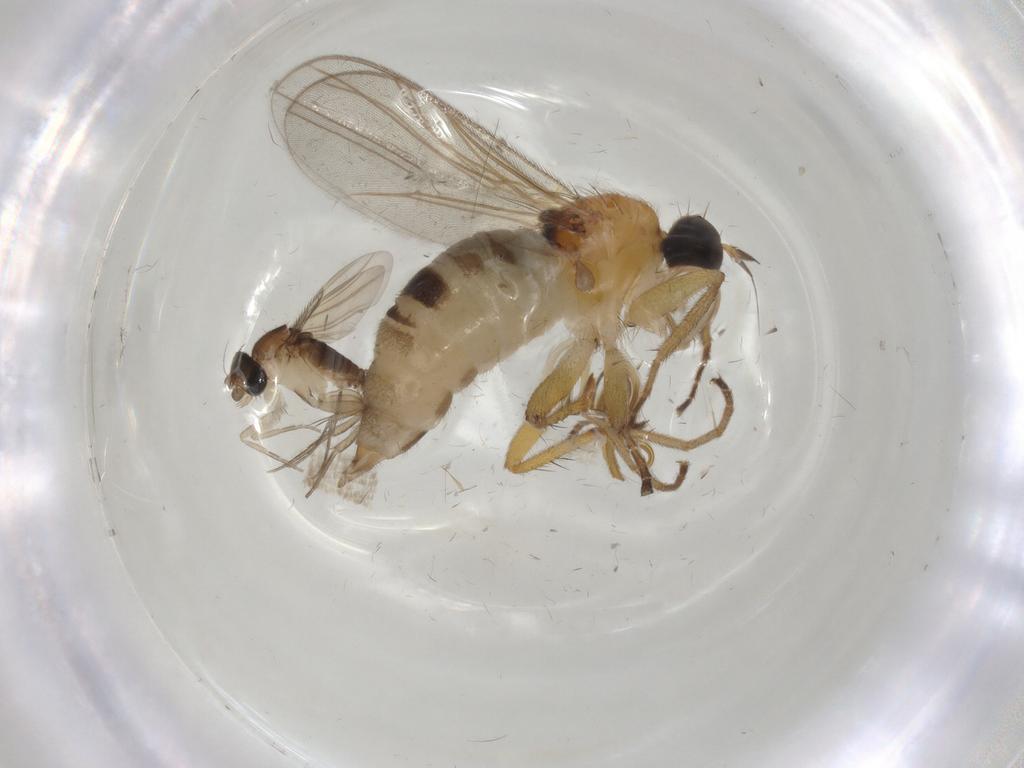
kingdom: Animalia
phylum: Arthropoda
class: Insecta
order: Diptera
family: Hybotidae
